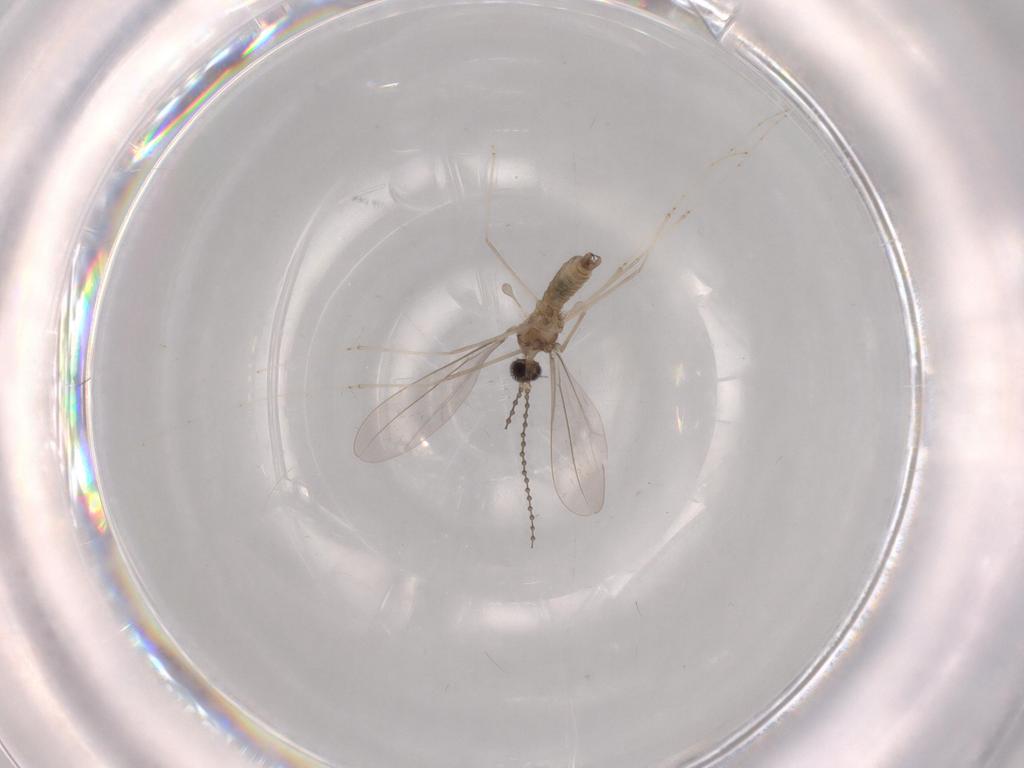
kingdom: Animalia
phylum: Arthropoda
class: Insecta
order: Diptera
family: Cecidomyiidae
